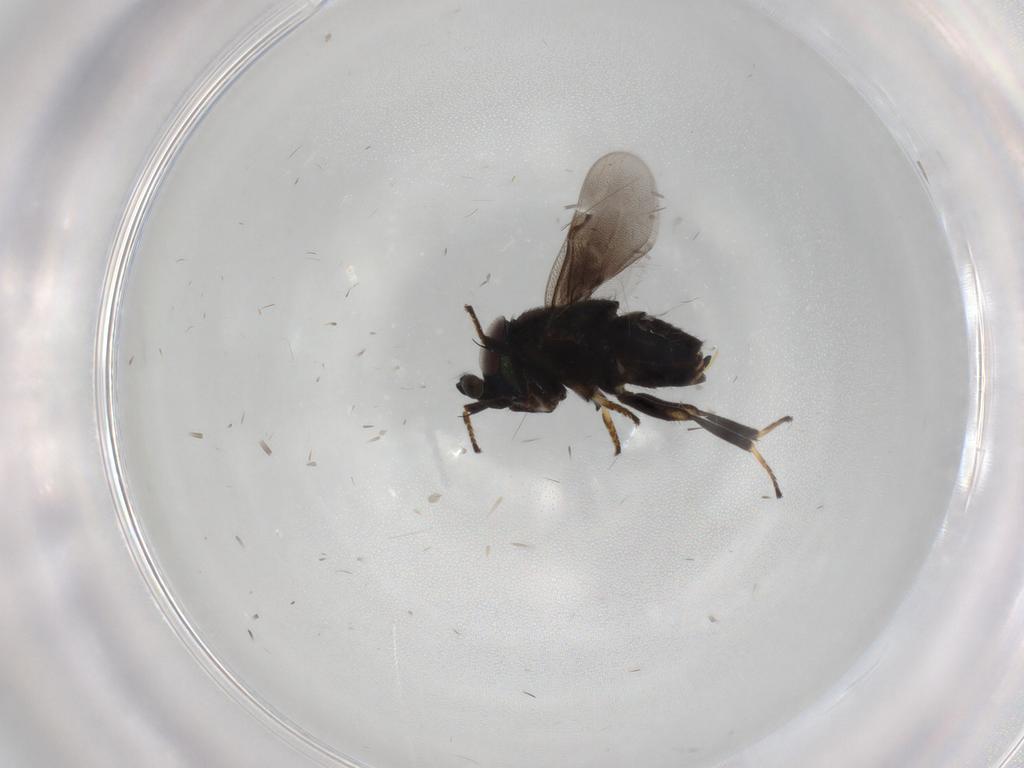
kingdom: Animalia
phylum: Arthropoda
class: Insecta
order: Hymenoptera
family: Encyrtidae
